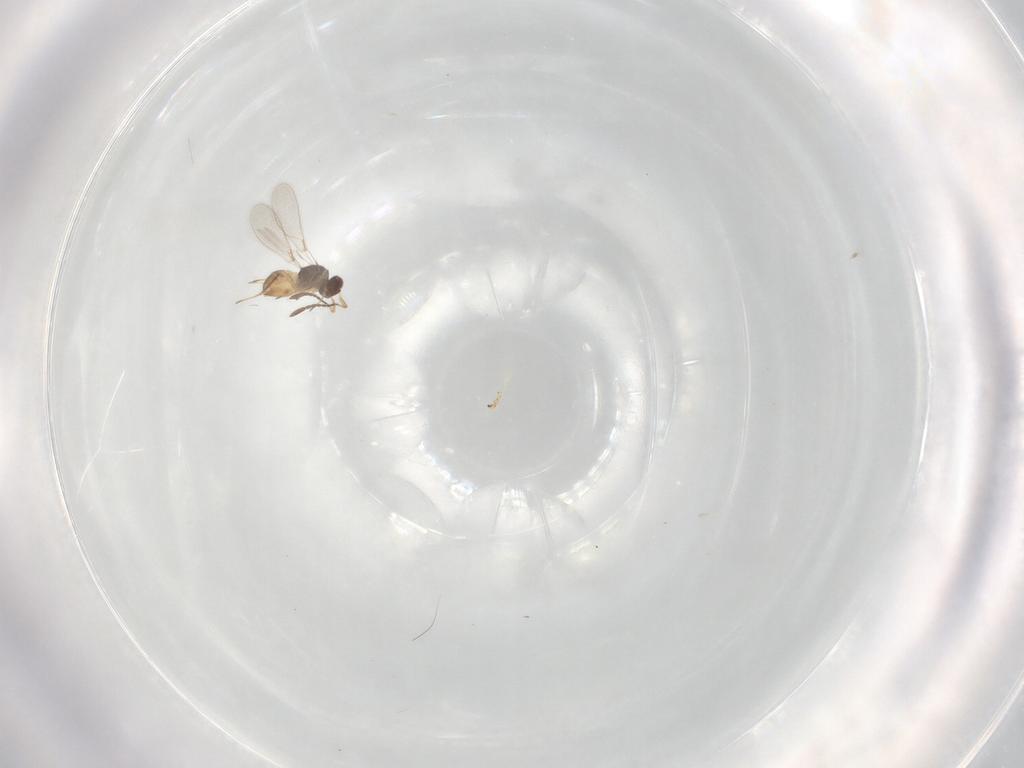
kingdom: Animalia
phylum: Arthropoda
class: Insecta
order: Hymenoptera
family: Mymaridae
